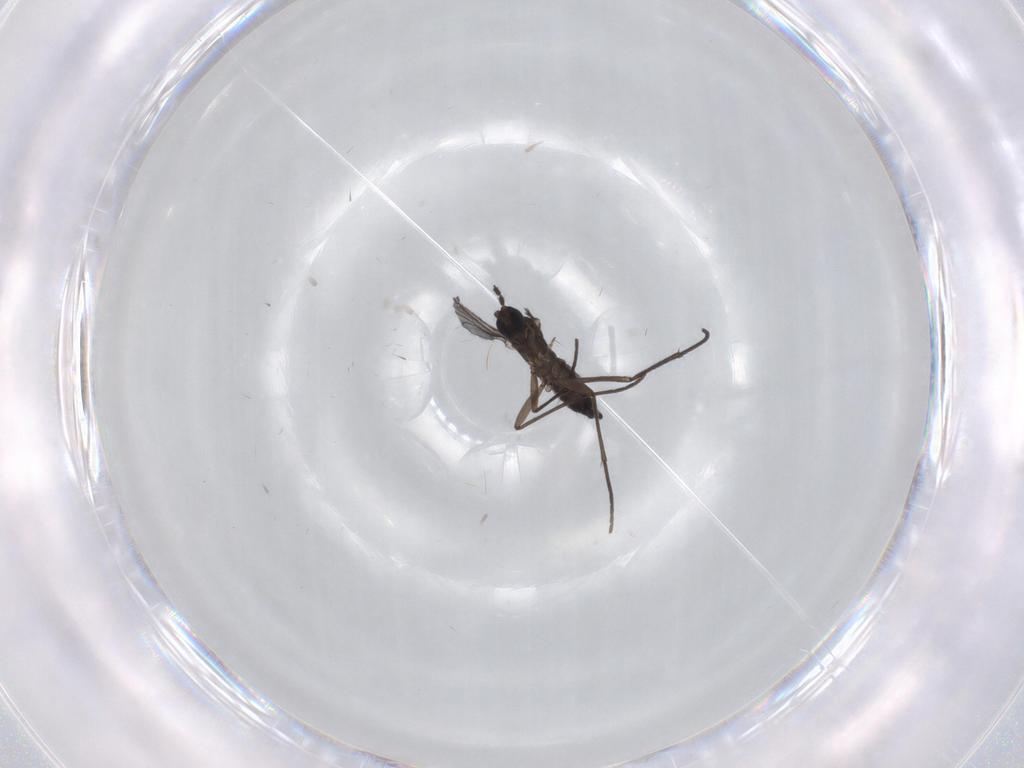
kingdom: Animalia
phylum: Arthropoda
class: Insecta
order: Diptera
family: Sciaridae
